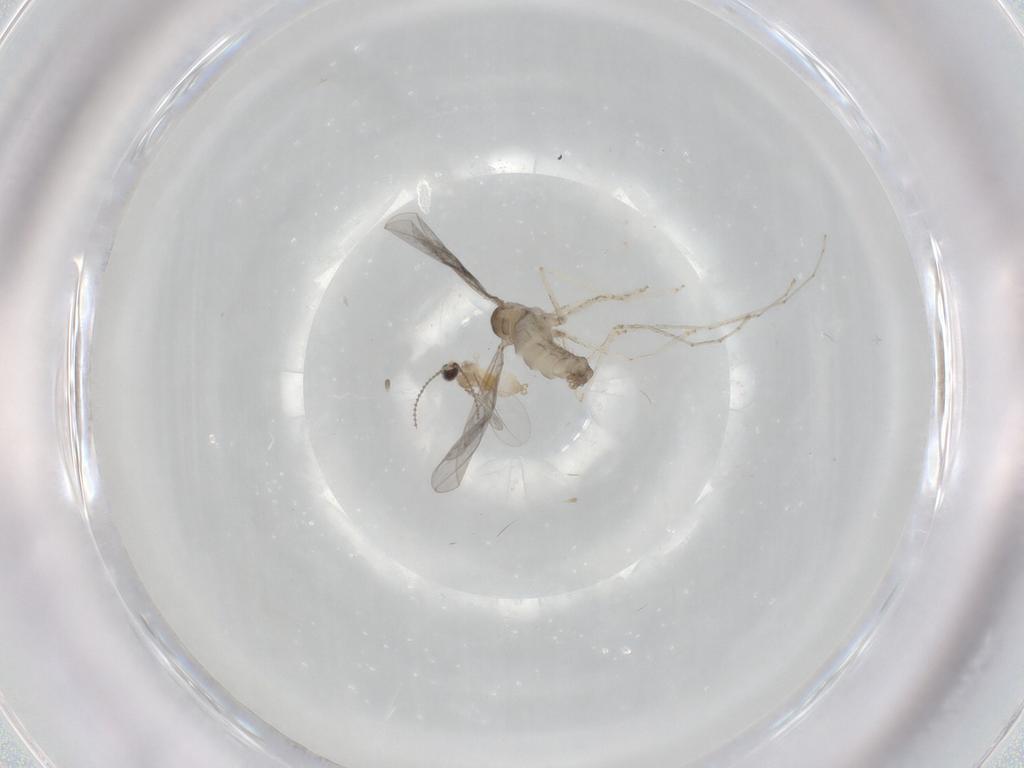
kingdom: Animalia
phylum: Arthropoda
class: Insecta
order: Diptera
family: Cecidomyiidae
